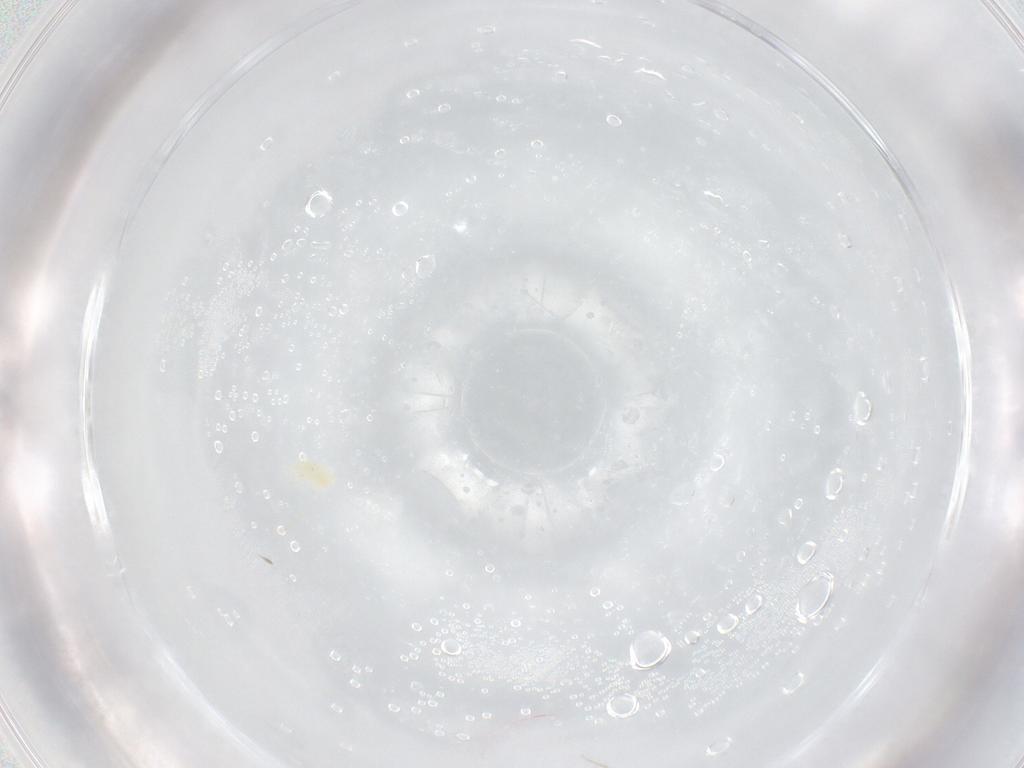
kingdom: Animalia
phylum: Arthropoda
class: Arachnida
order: Trombidiformes
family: Eupodidae
